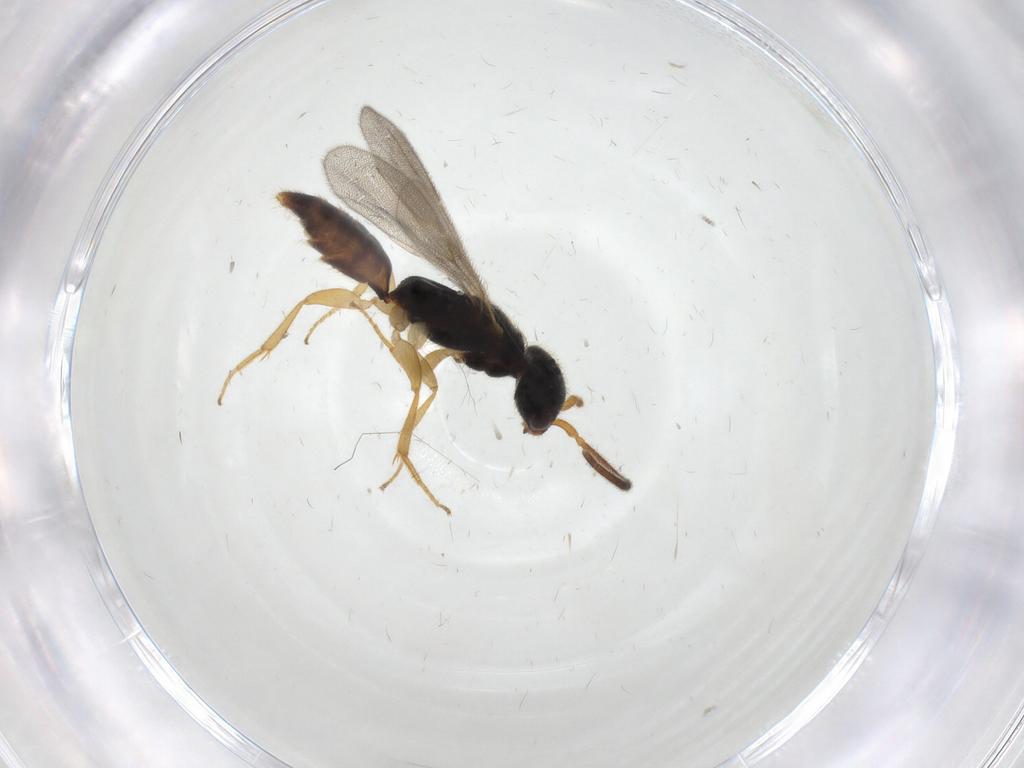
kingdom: Animalia
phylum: Arthropoda
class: Insecta
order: Hymenoptera
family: Bethylidae
